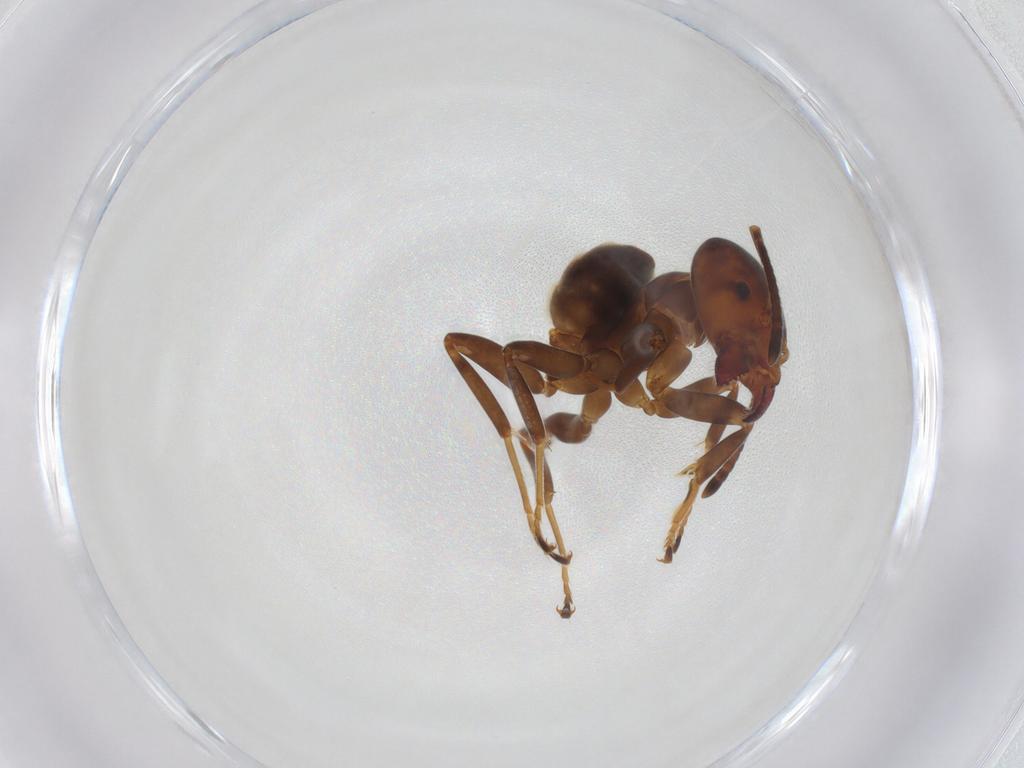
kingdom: Animalia
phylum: Arthropoda
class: Insecta
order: Hymenoptera
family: Formicidae
